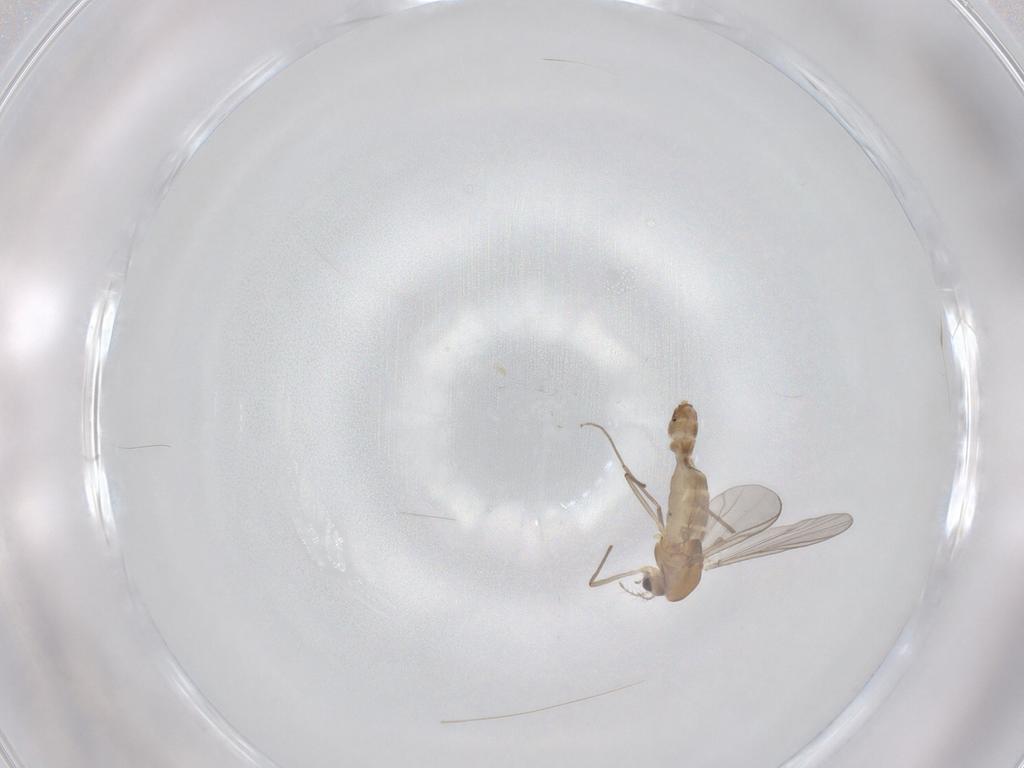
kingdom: Animalia
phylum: Arthropoda
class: Insecta
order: Diptera
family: Chironomidae
